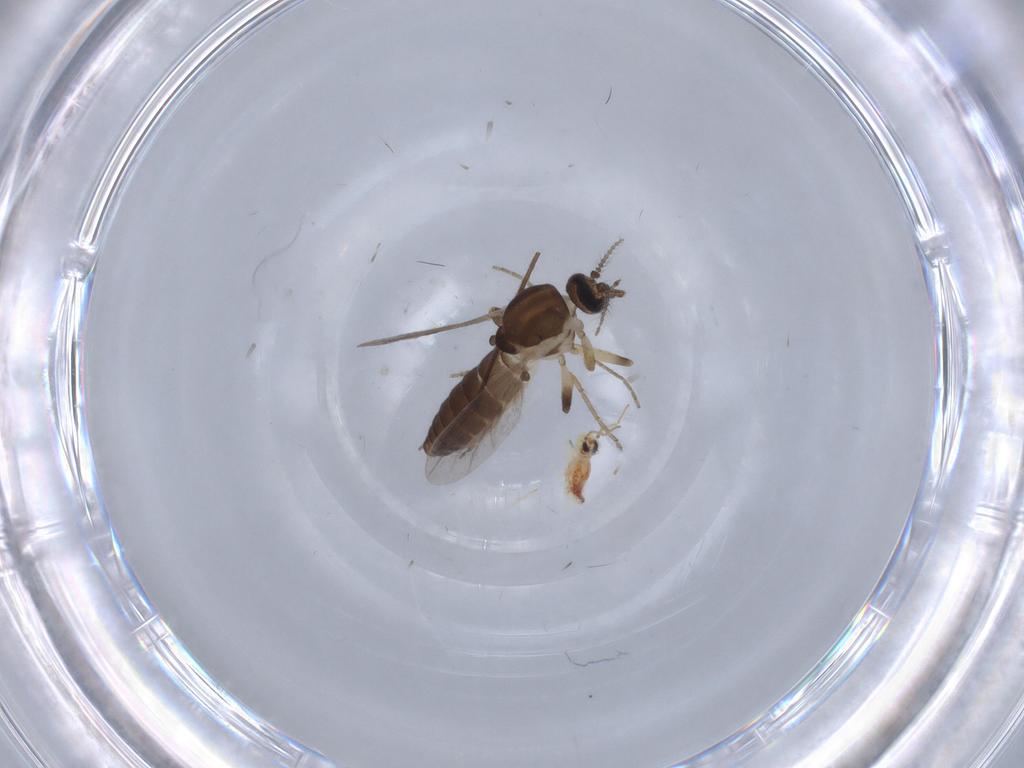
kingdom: Animalia
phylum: Arthropoda
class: Insecta
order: Diptera
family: Ceratopogonidae
